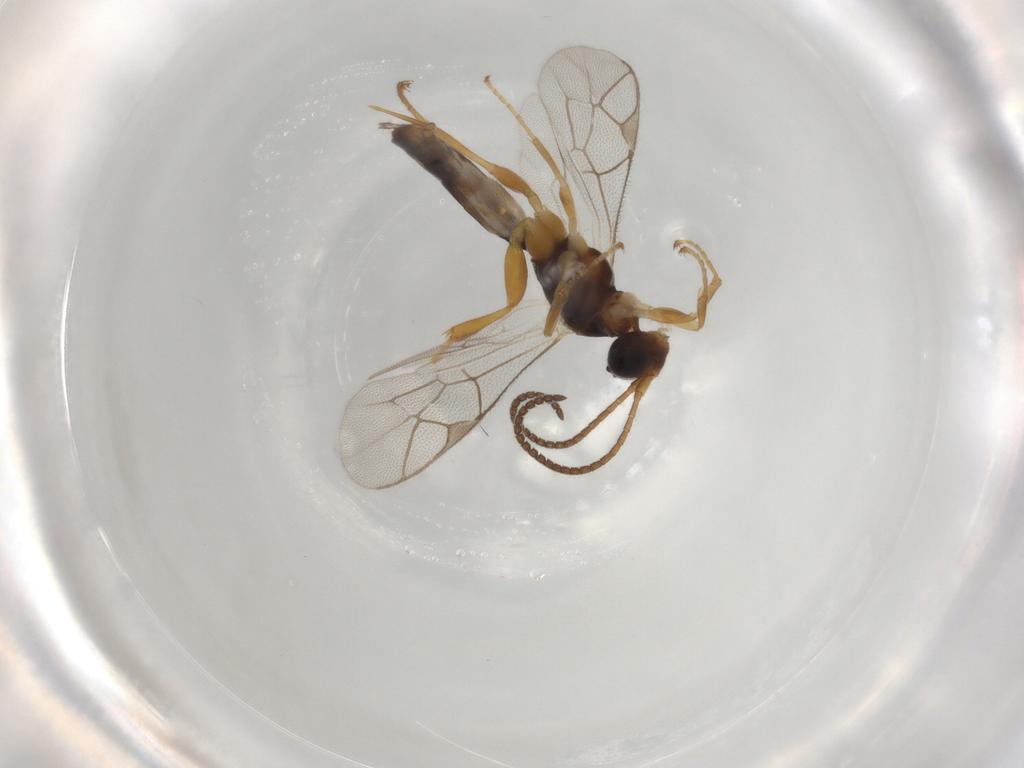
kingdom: Animalia
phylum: Arthropoda
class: Insecta
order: Hymenoptera
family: Ichneumonidae
